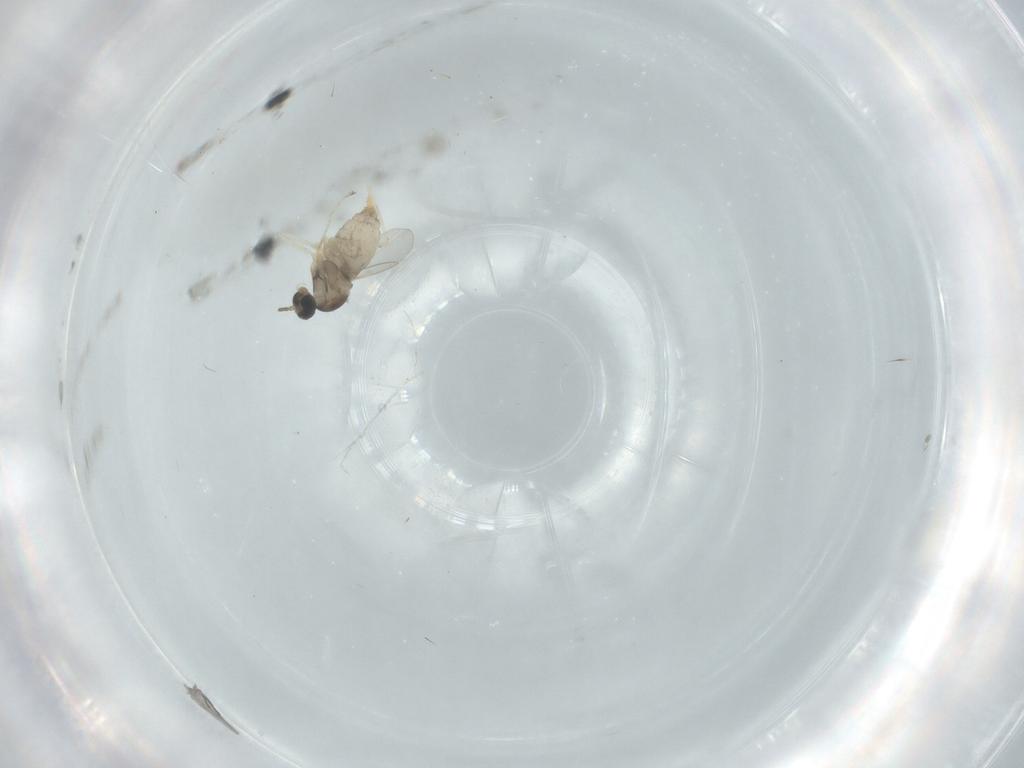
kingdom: Animalia
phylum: Arthropoda
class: Insecta
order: Diptera
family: Cecidomyiidae
